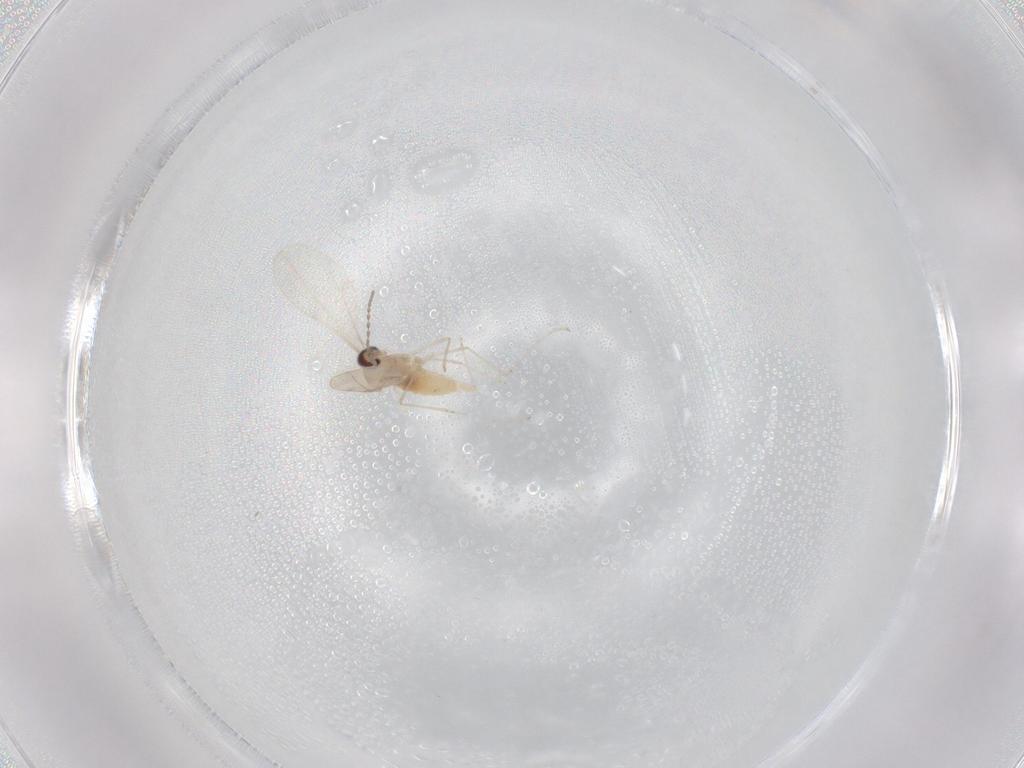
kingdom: Animalia
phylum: Arthropoda
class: Insecta
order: Diptera
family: Cecidomyiidae
